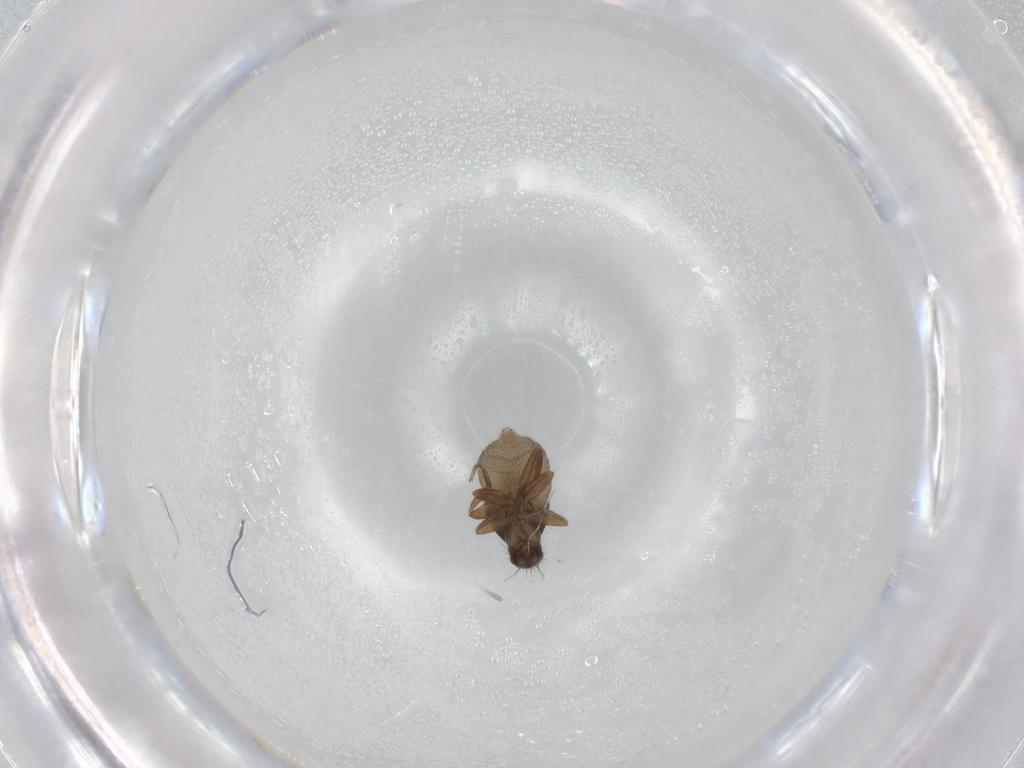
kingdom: Animalia
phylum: Arthropoda
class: Insecta
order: Diptera
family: Phoridae
